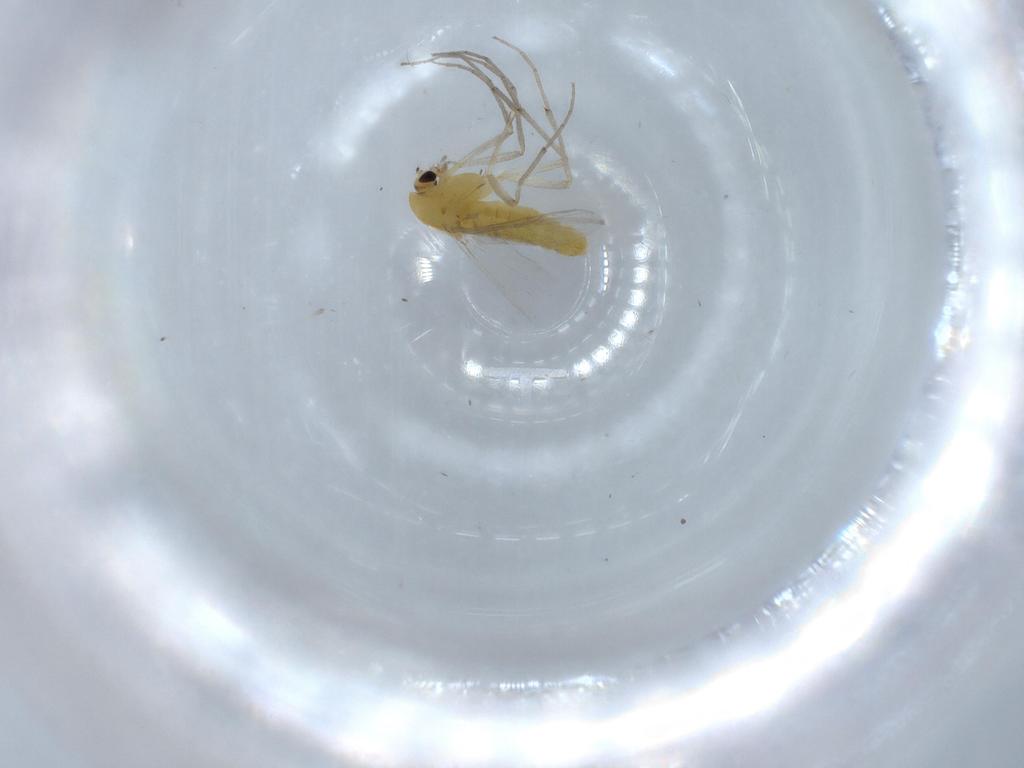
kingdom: Animalia
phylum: Arthropoda
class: Insecta
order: Diptera
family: Chironomidae
